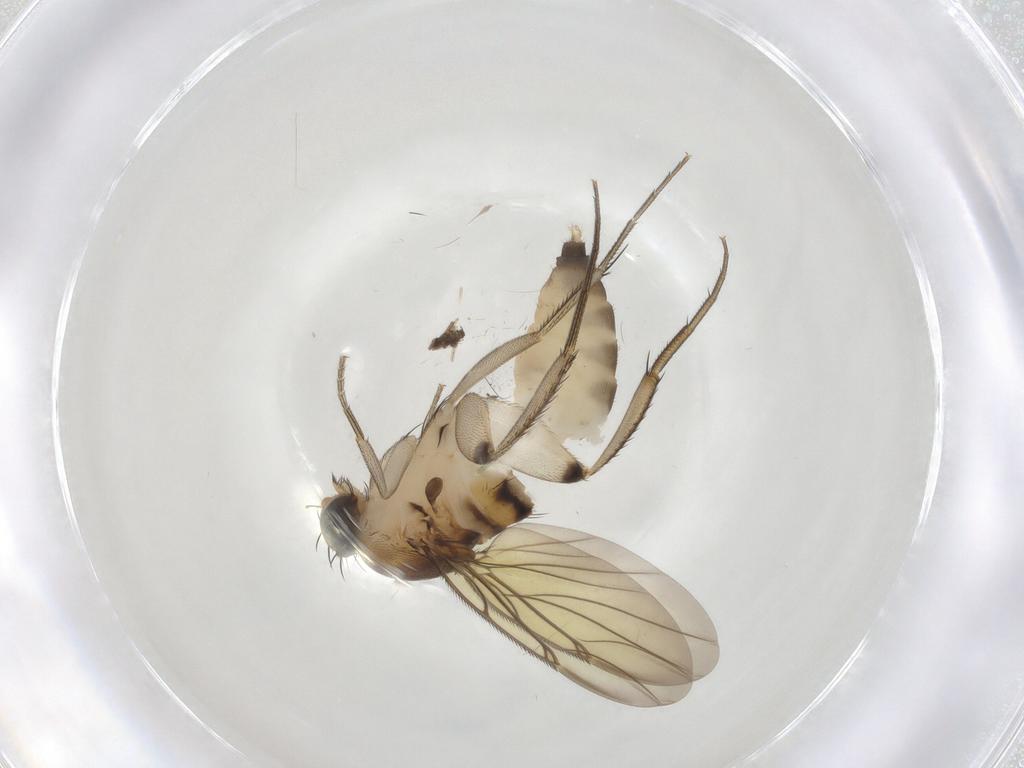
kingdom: Animalia
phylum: Arthropoda
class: Insecta
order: Diptera
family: Phoridae
